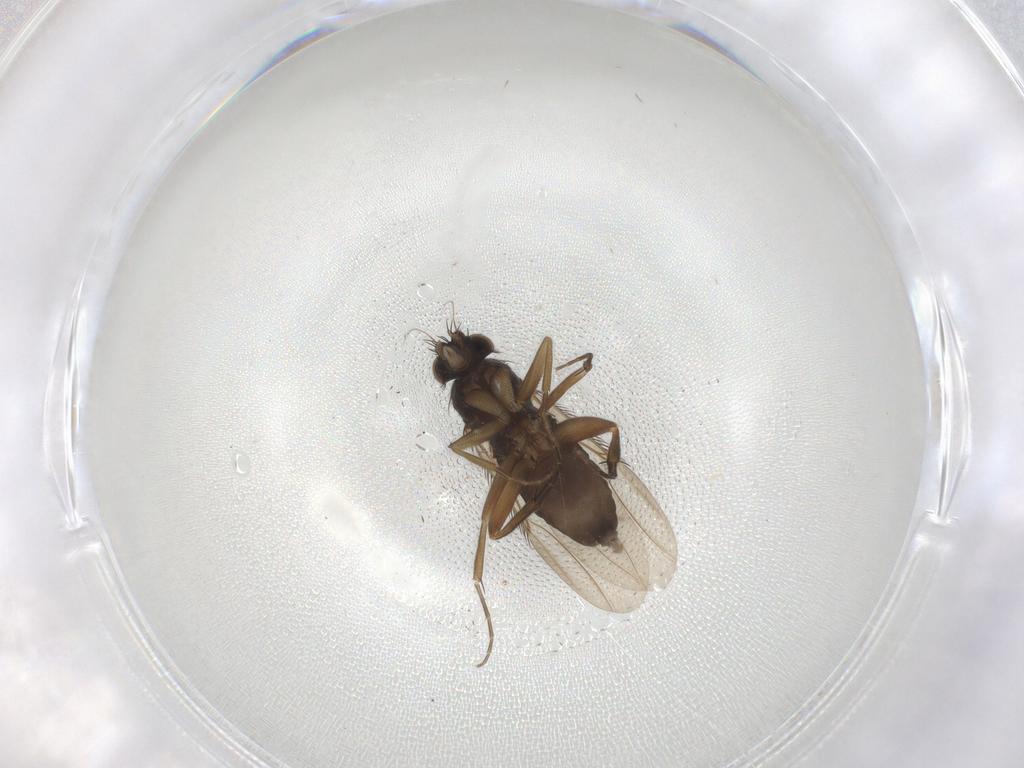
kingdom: Animalia
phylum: Arthropoda
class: Insecta
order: Diptera
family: Phoridae
